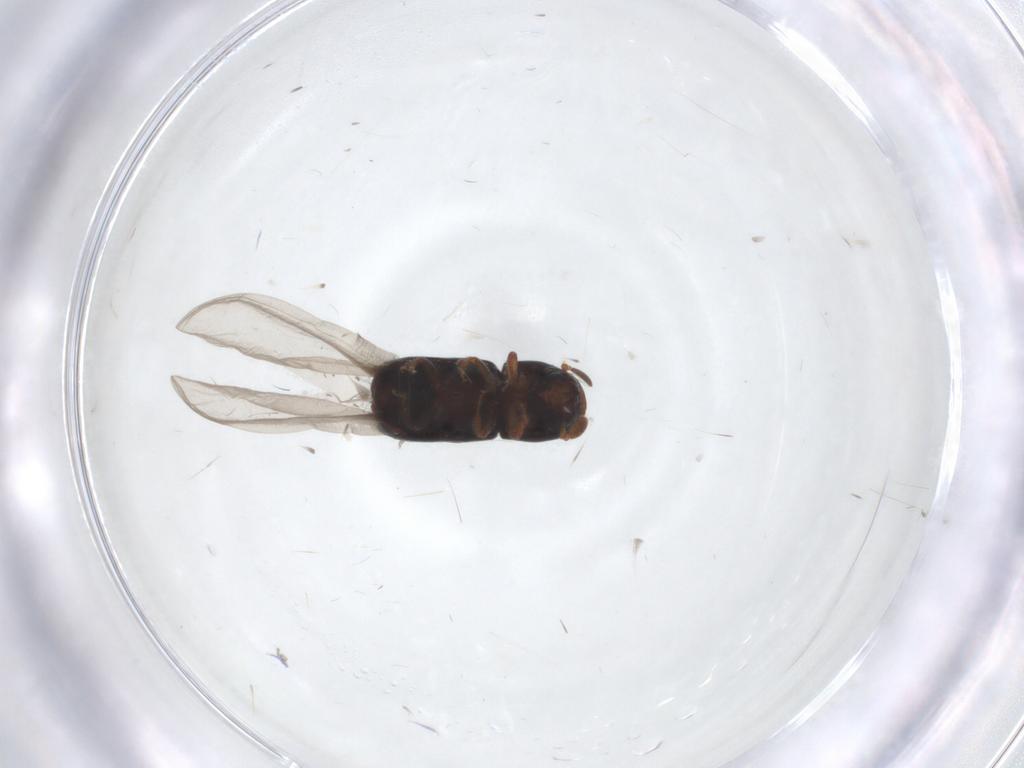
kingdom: Animalia
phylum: Arthropoda
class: Insecta
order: Coleoptera
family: Curculionidae
